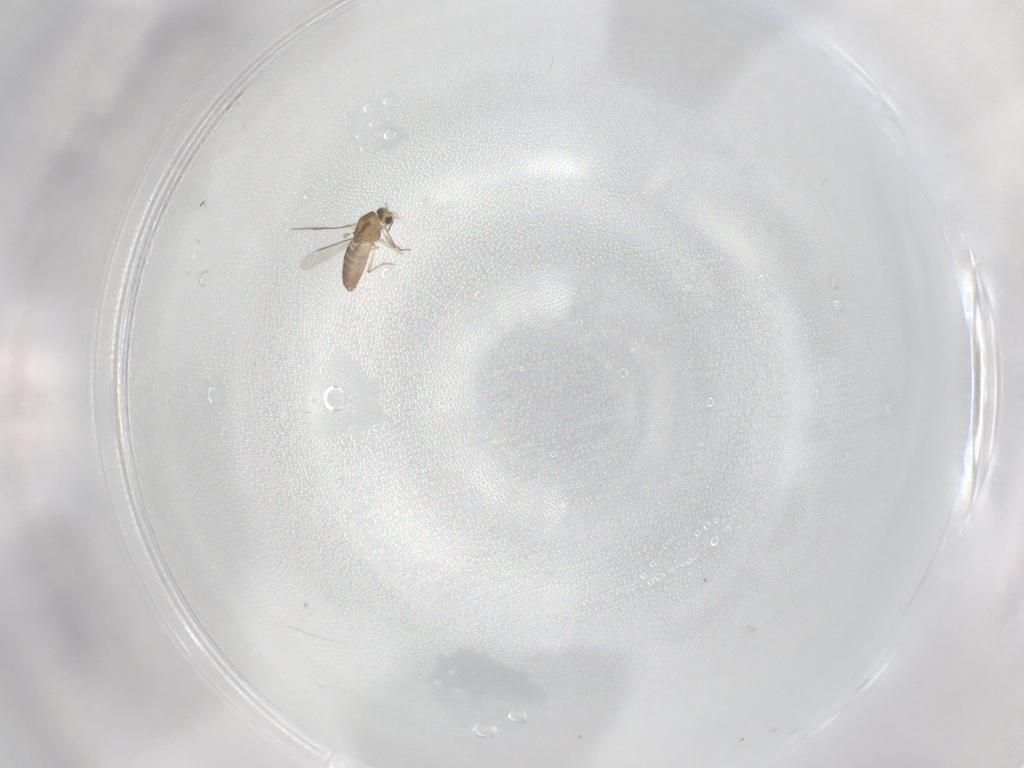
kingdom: Animalia
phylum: Arthropoda
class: Insecta
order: Diptera
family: Chironomidae
